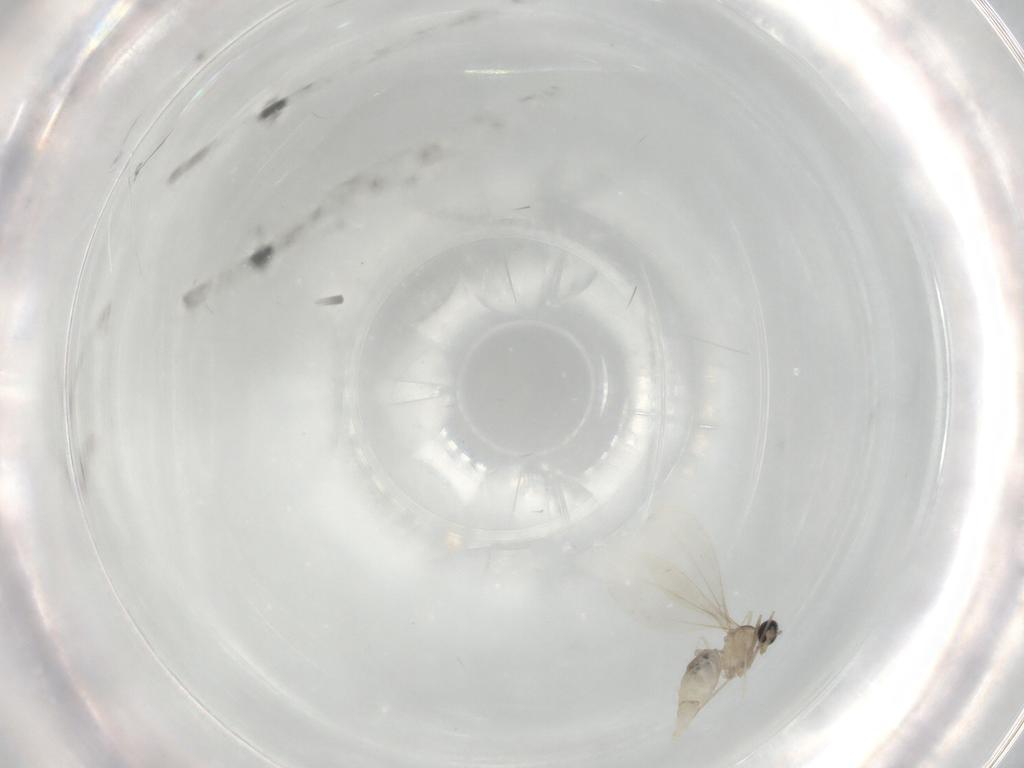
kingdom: Animalia
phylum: Arthropoda
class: Insecta
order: Diptera
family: Cecidomyiidae
